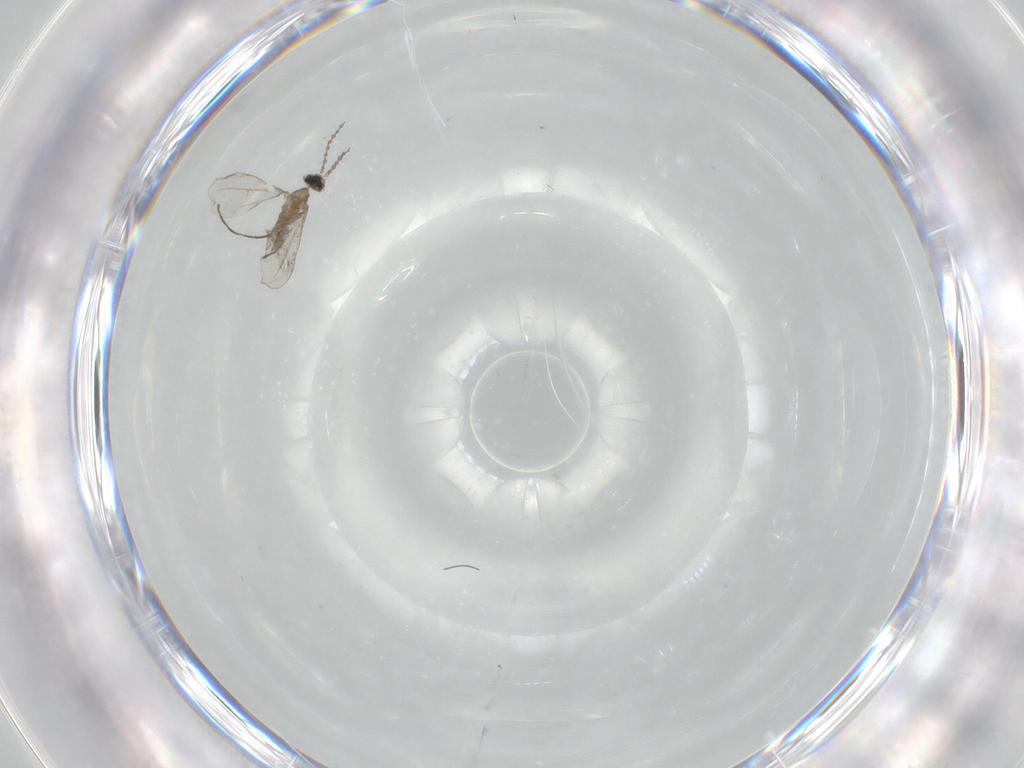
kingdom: Animalia
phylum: Arthropoda
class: Insecta
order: Diptera
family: Cecidomyiidae
